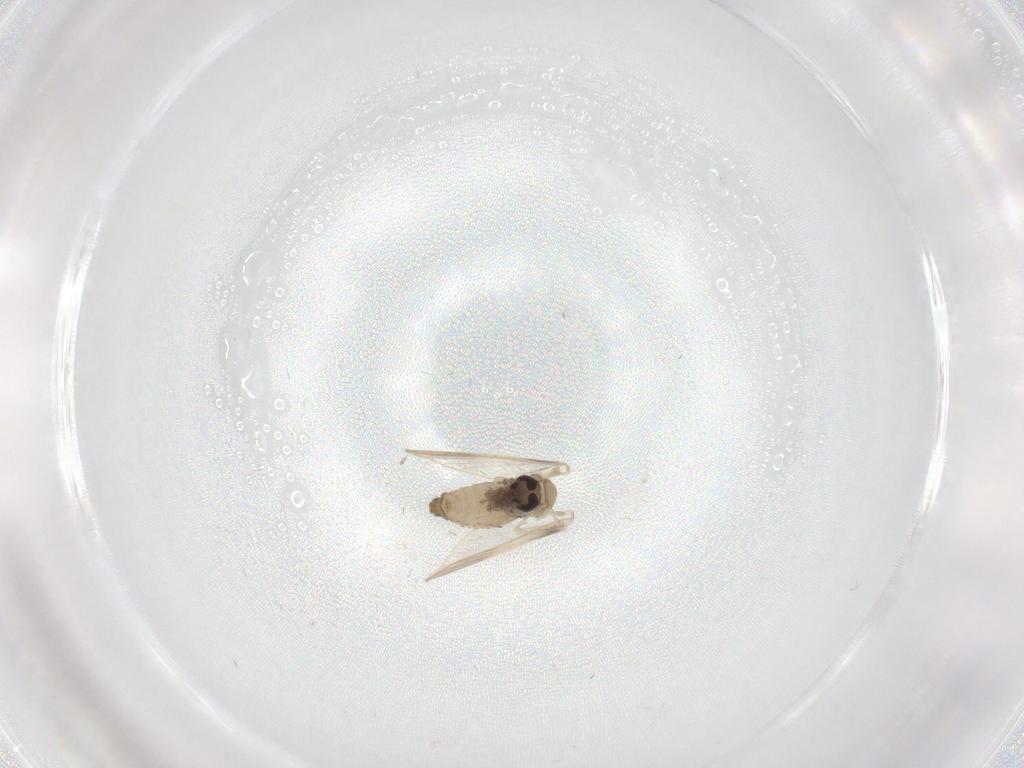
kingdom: Animalia
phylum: Arthropoda
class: Insecta
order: Diptera
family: Psychodidae
